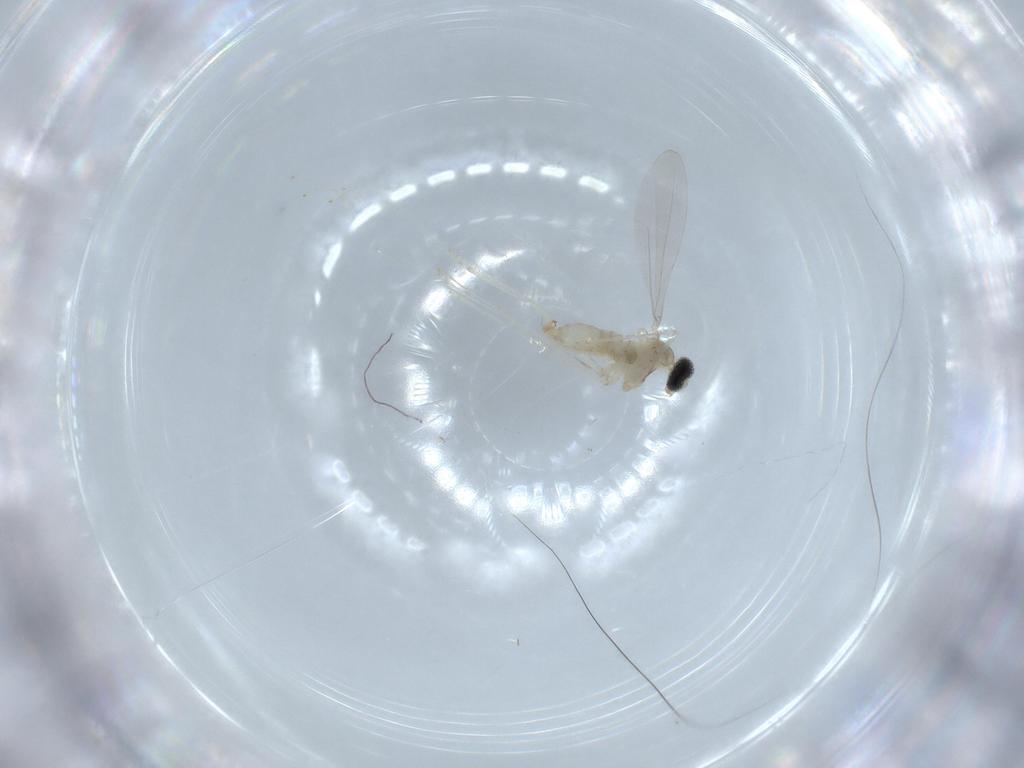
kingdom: Animalia
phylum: Arthropoda
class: Insecta
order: Diptera
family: Cecidomyiidae
